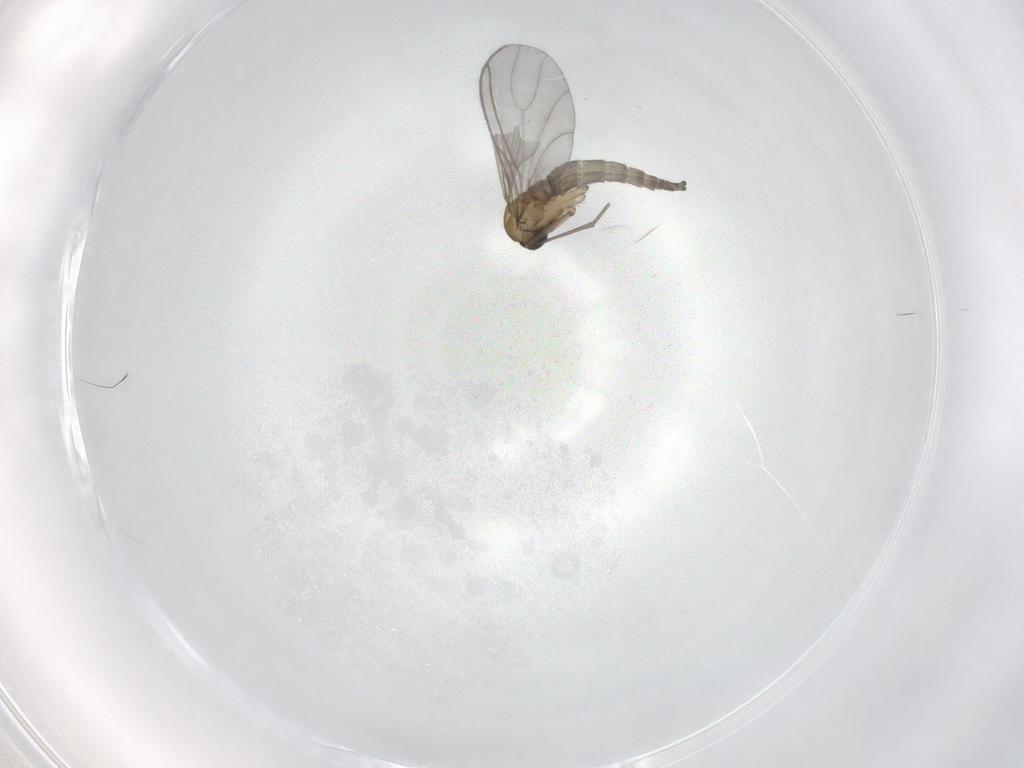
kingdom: Animalia
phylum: Arthropoda
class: Insecta
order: Diptera
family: Sciaridae
